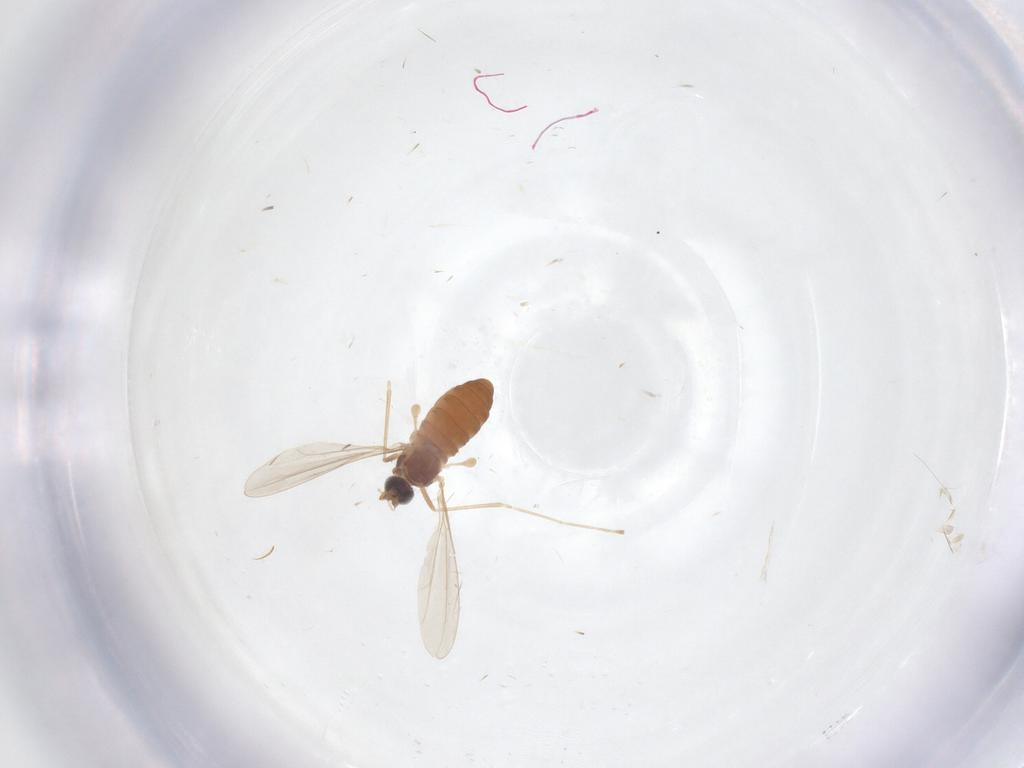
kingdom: Animalia
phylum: Arthropoda
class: Insecta
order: Diptera
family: Cecidomyiidae
